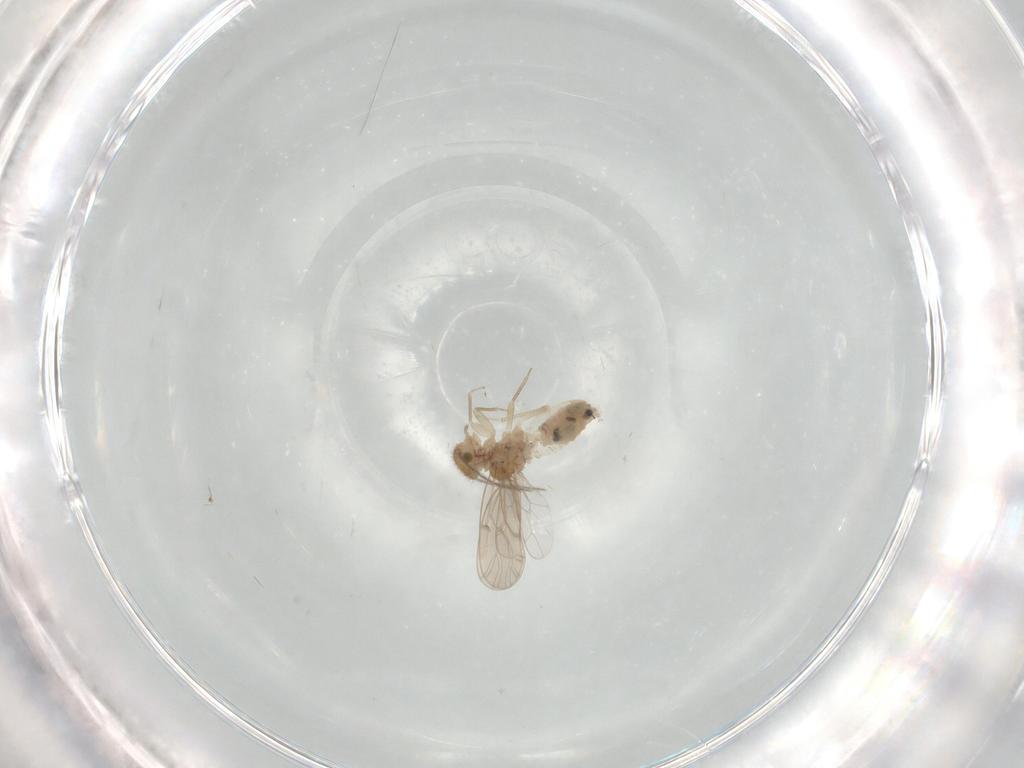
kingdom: Animalia
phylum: Arthropoda
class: Insecta
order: Psocodea
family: Ectopsocidae
